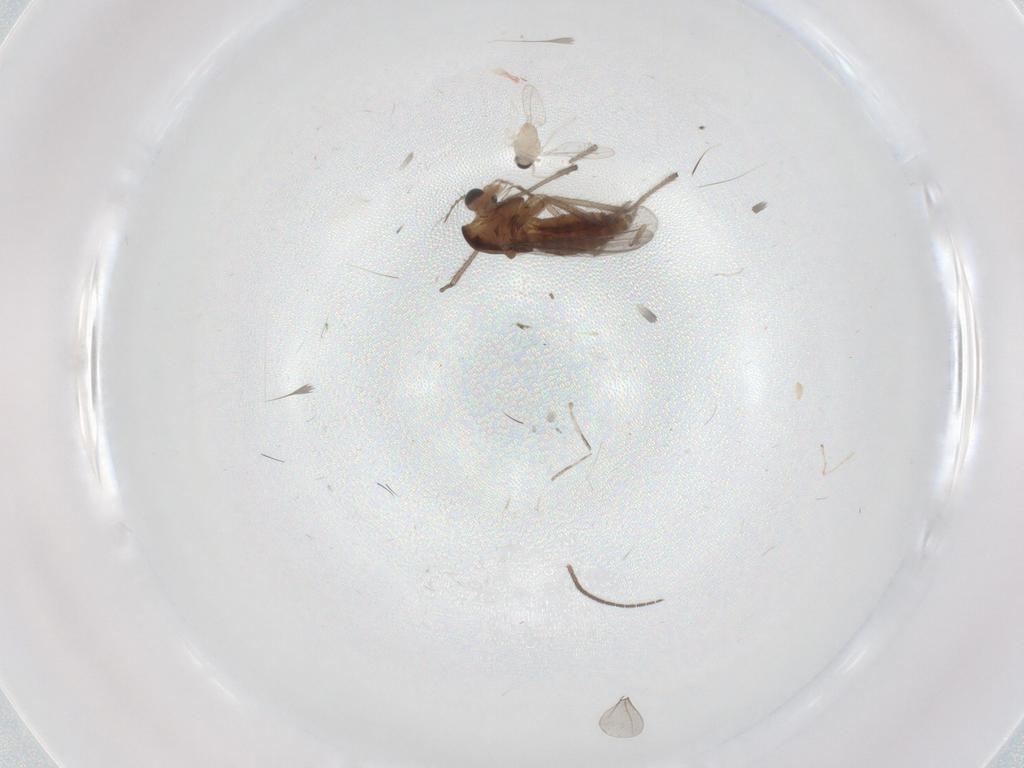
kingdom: Animalia
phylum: Arthropoda
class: Insecta
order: Diptera
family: Chironomidae
